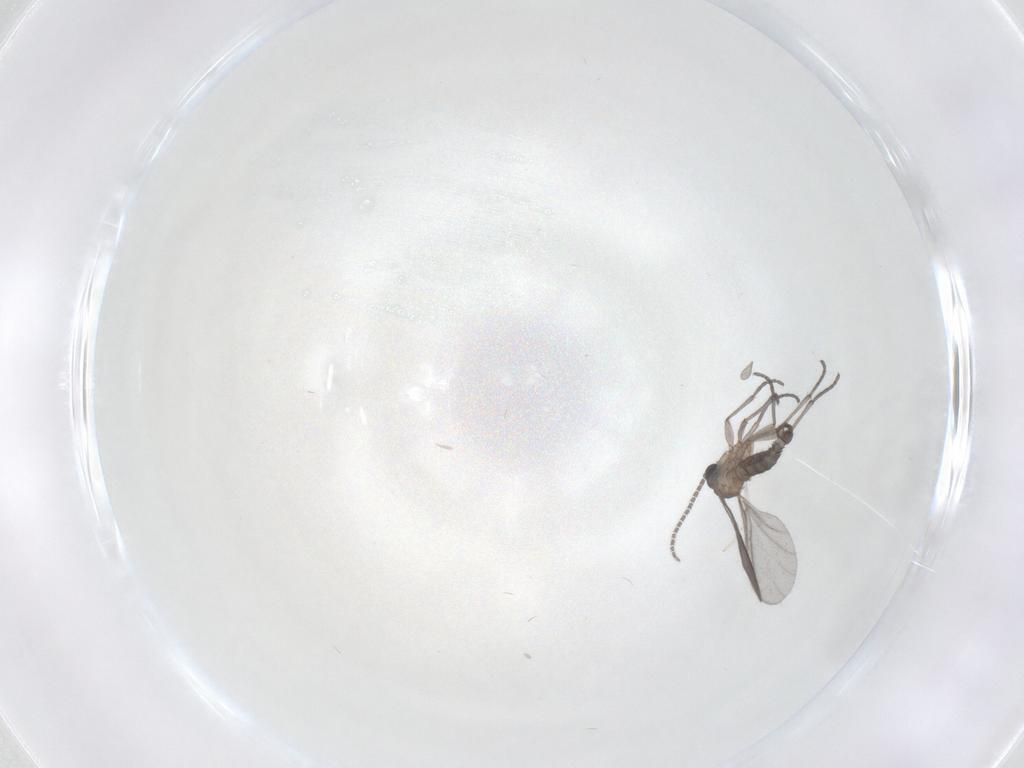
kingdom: Animalia
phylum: Arthropoda
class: Insecta
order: Diptera
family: Sciaridae
